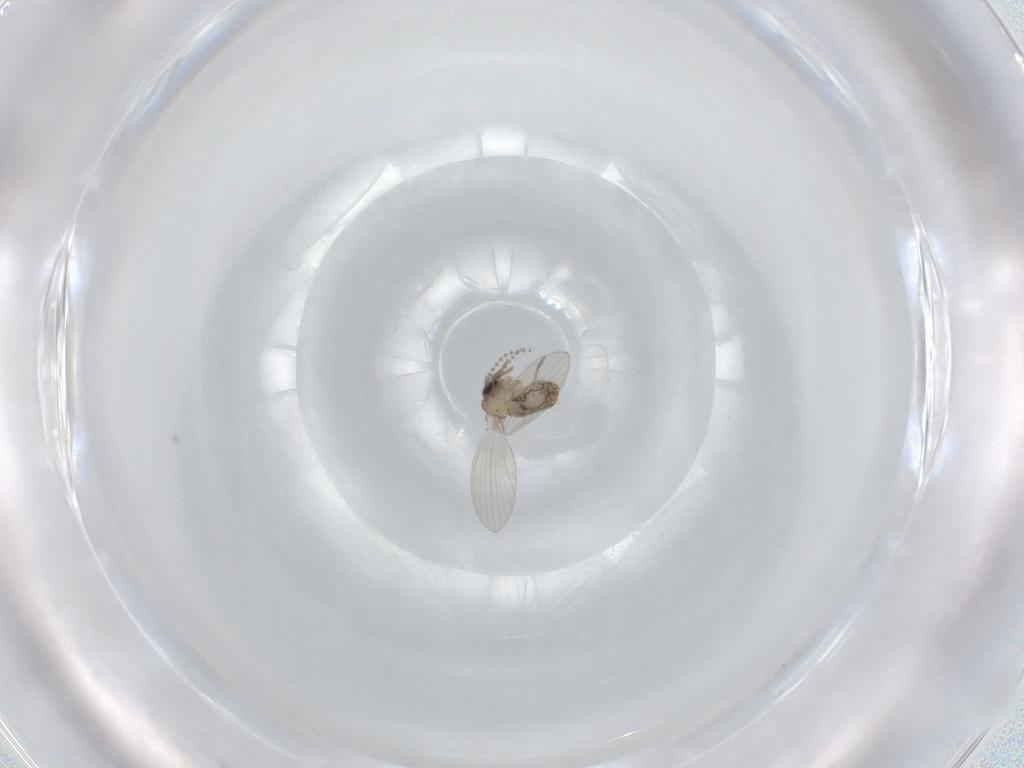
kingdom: Animalia
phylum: Arthropoda
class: Insecta
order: Diptera
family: Psychodidae
